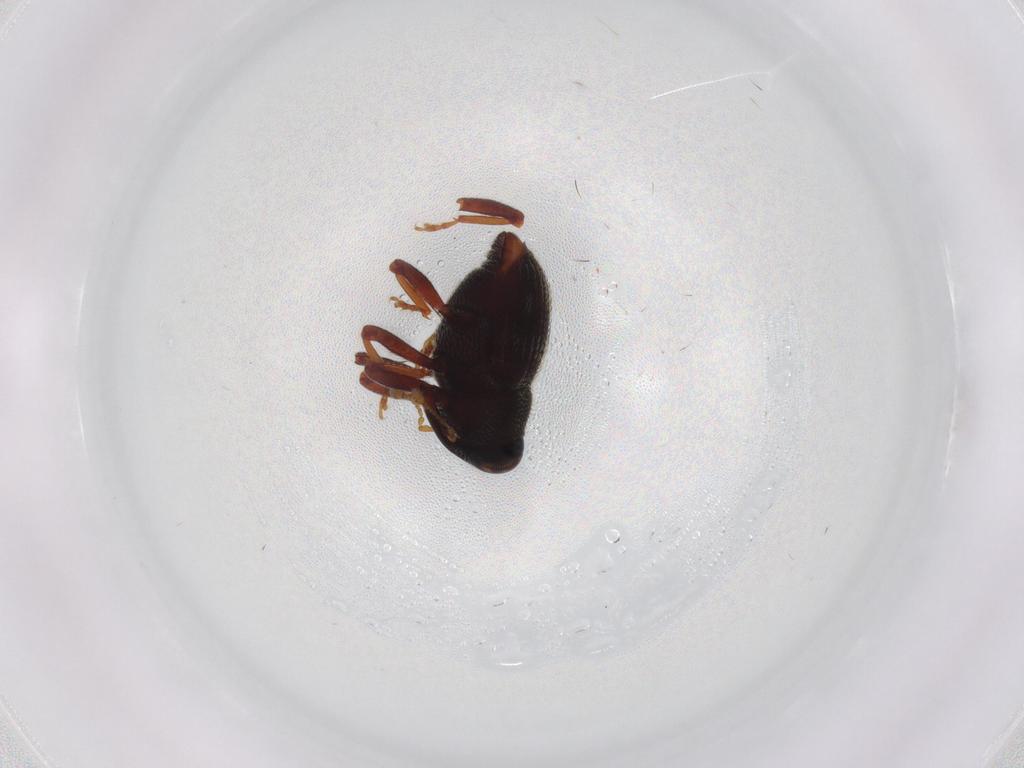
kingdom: Animalia
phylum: Arthropoda
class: Insecta
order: Coleoptera
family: Curculionidae
